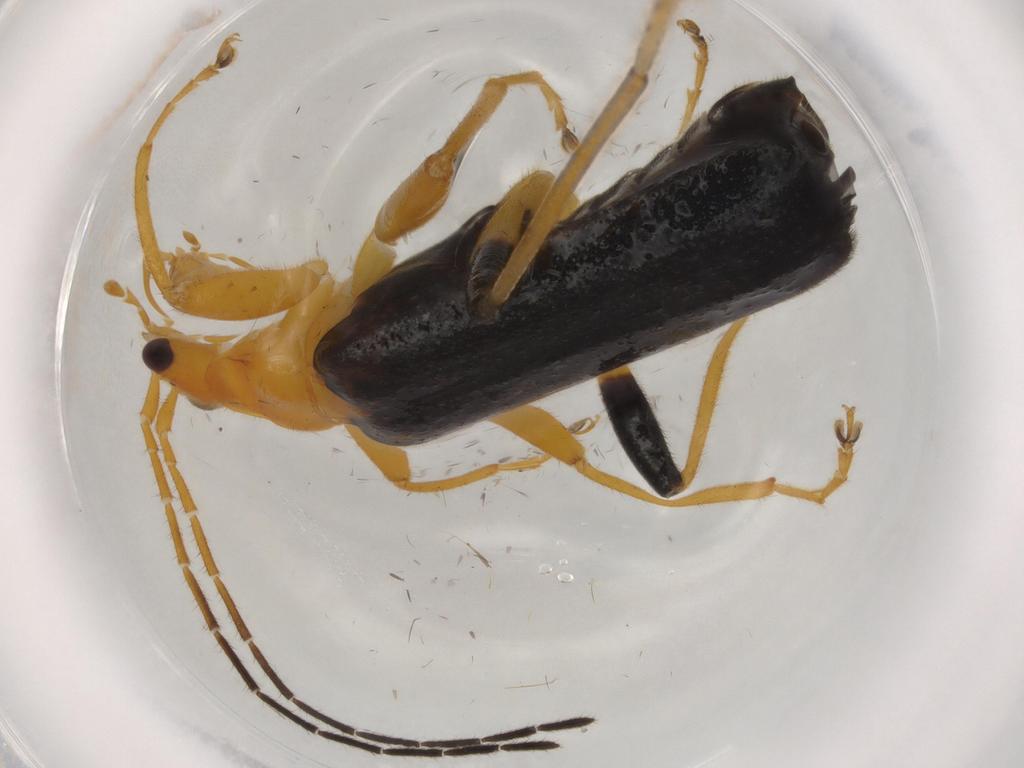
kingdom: Animalia
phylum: Arthropoda
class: Insecta
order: Coleoptera
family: Cantharidae
